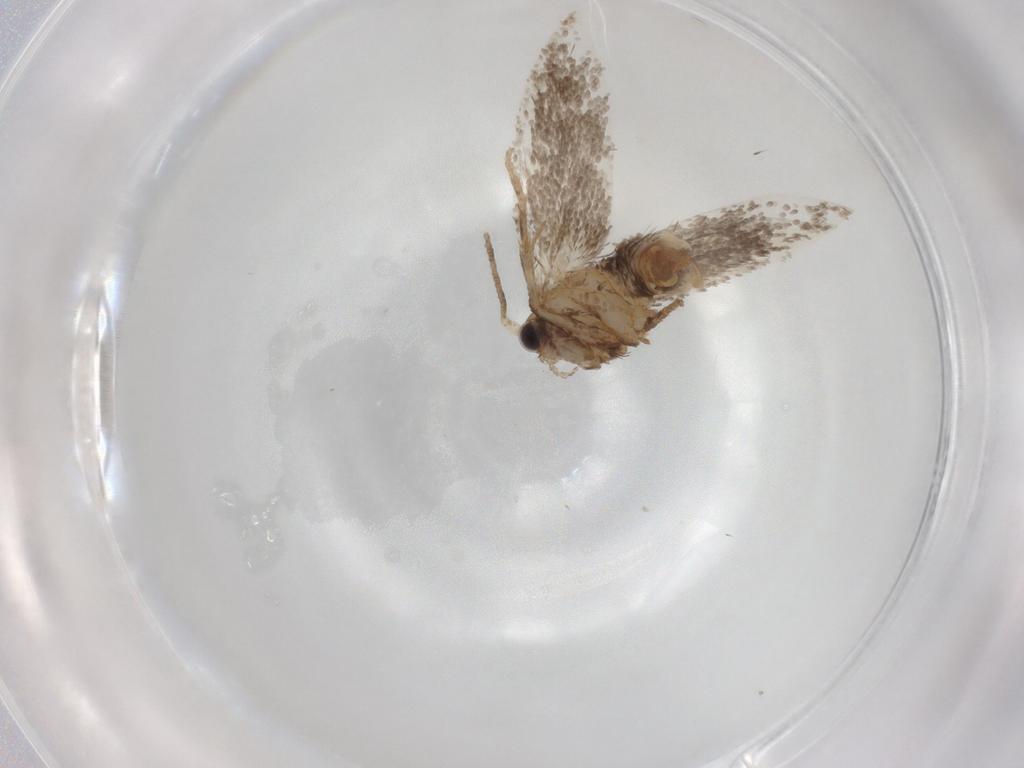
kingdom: Animalia
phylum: Arthropoda
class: Insecta
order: Lepidoptera
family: Tineidae
